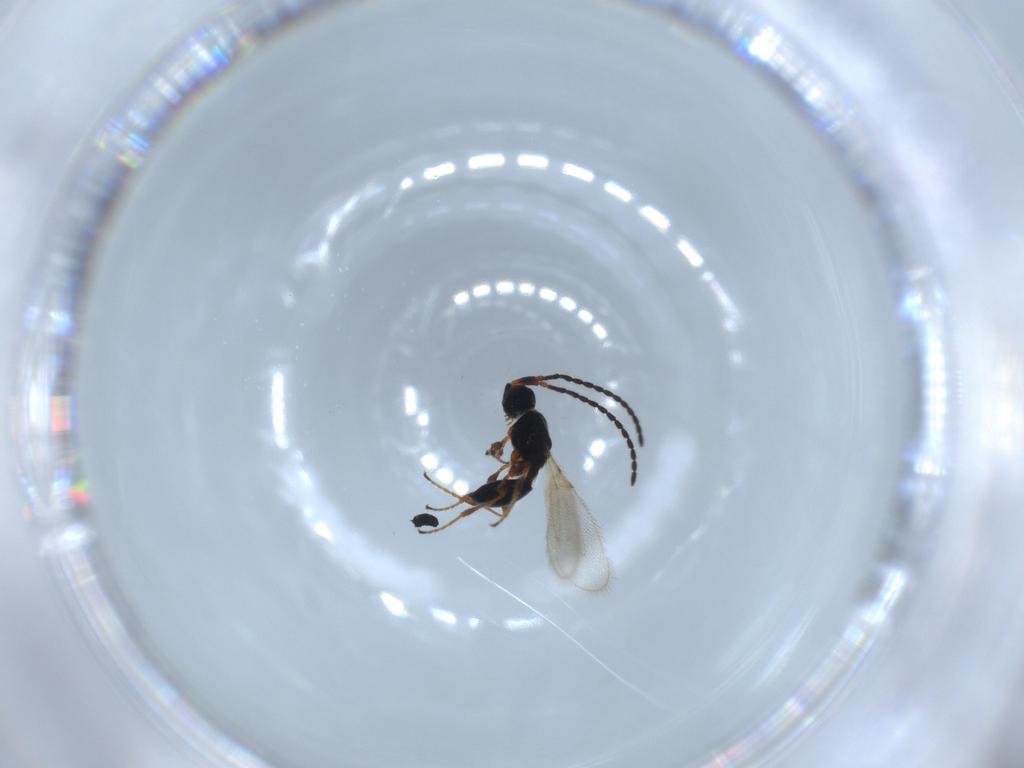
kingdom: Animalia
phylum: Arthropoda
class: Insecta
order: Hymenoptera
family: Diapriidae
